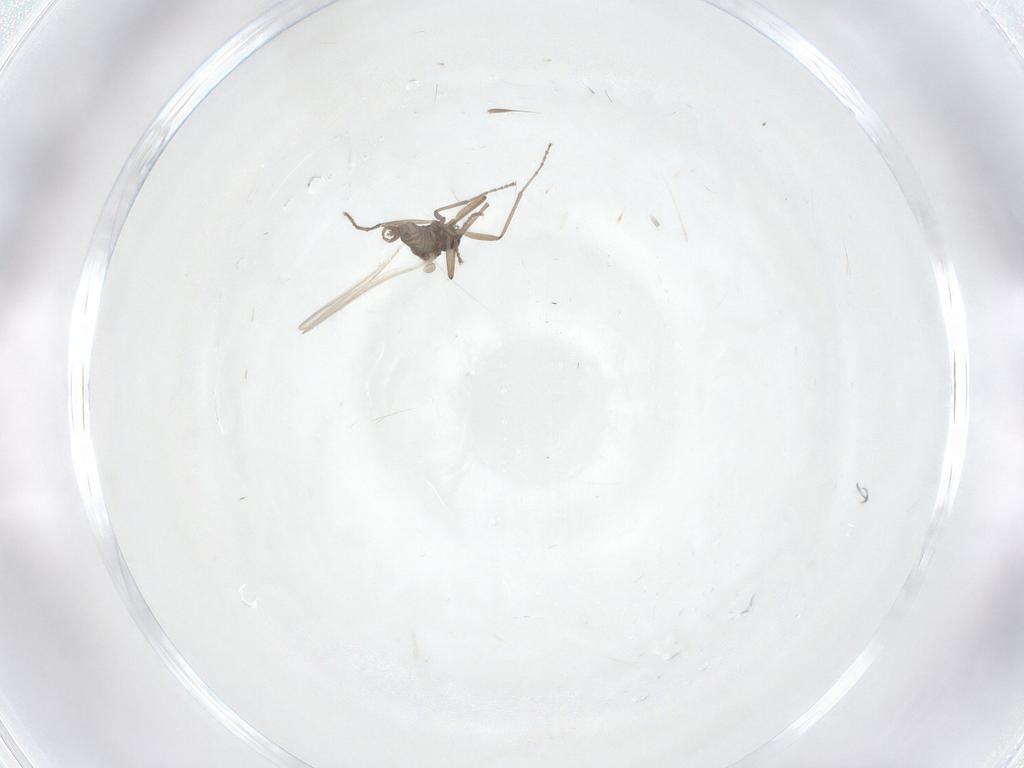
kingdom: Animalia
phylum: Arthropoda
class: Insecta
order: Diptera
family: Cecidomyiidae
